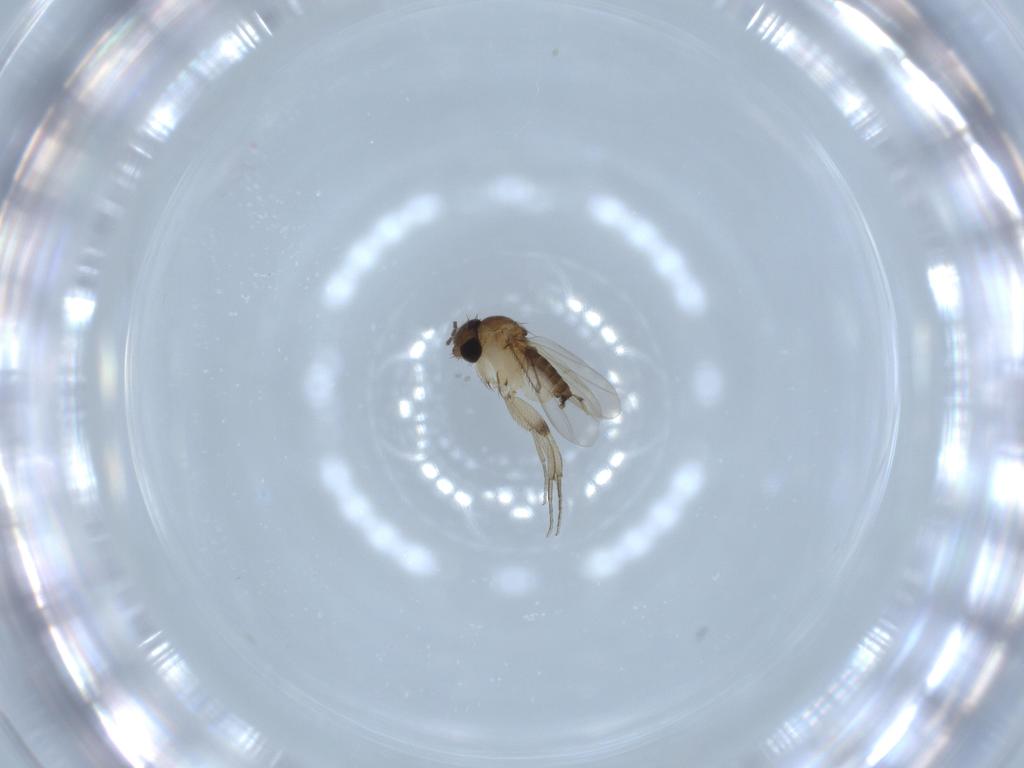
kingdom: Animalia
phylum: Arthropoda
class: Insecta
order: Diptera
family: Phoridae
